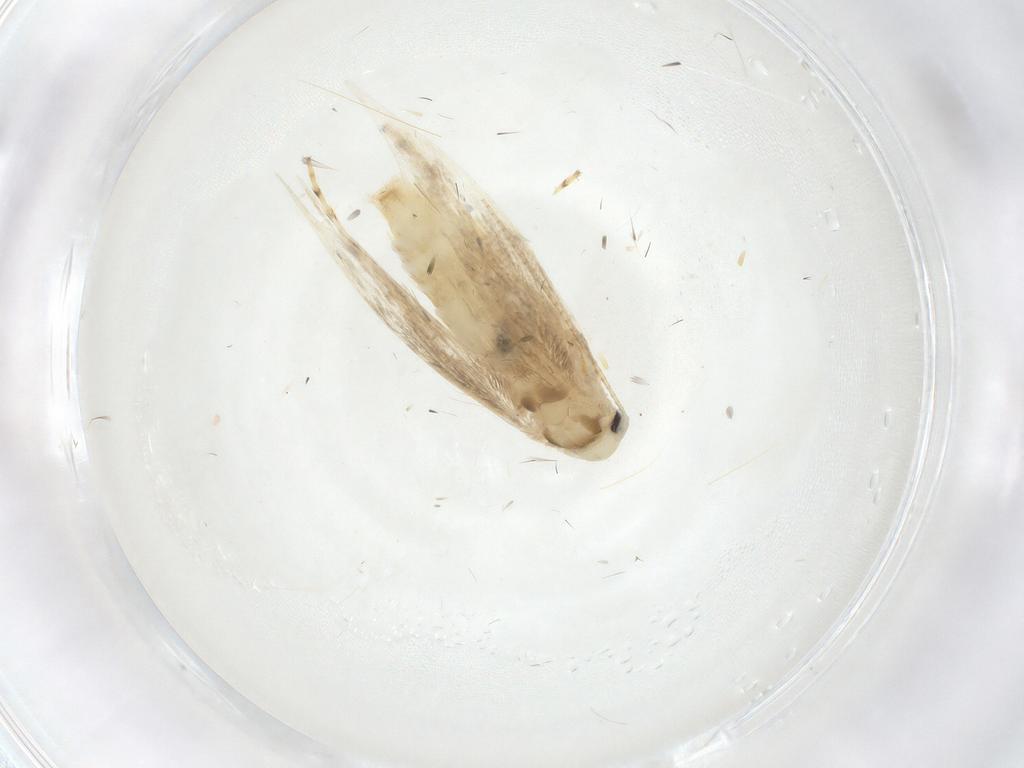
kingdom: Animalia
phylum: Arthropoda
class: Insecta
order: Lepidoptera
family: Gracillariidae
